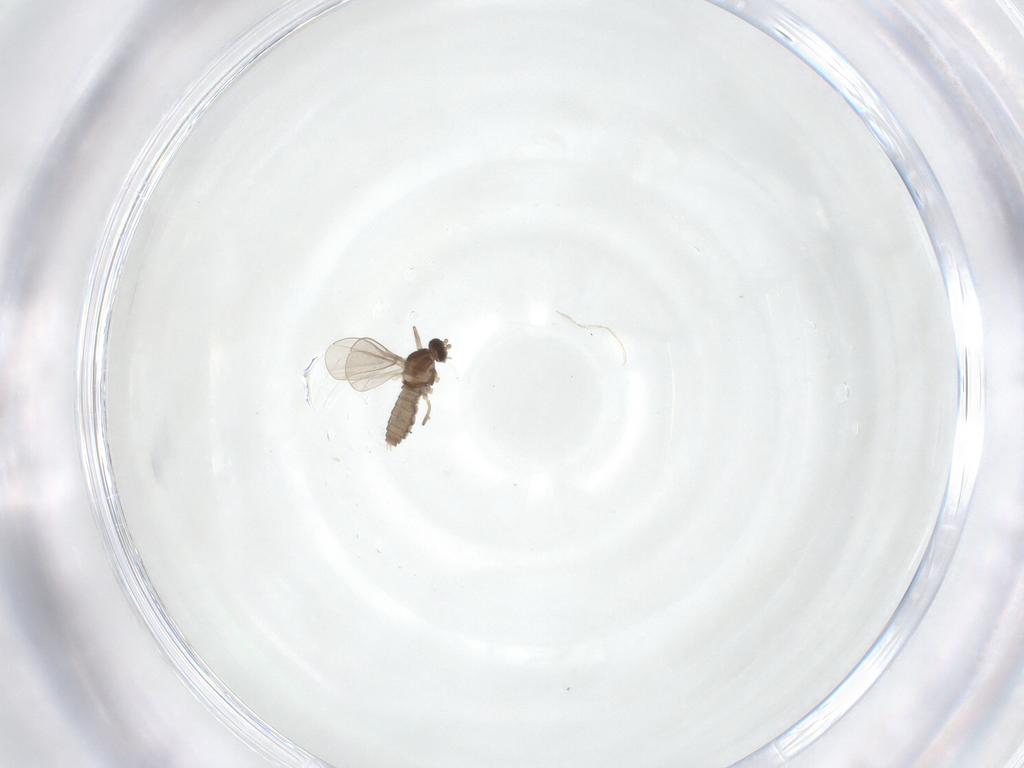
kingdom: Animalia
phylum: Arthropoda
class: Insecta
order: Diptera
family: Cecidomyiidae
